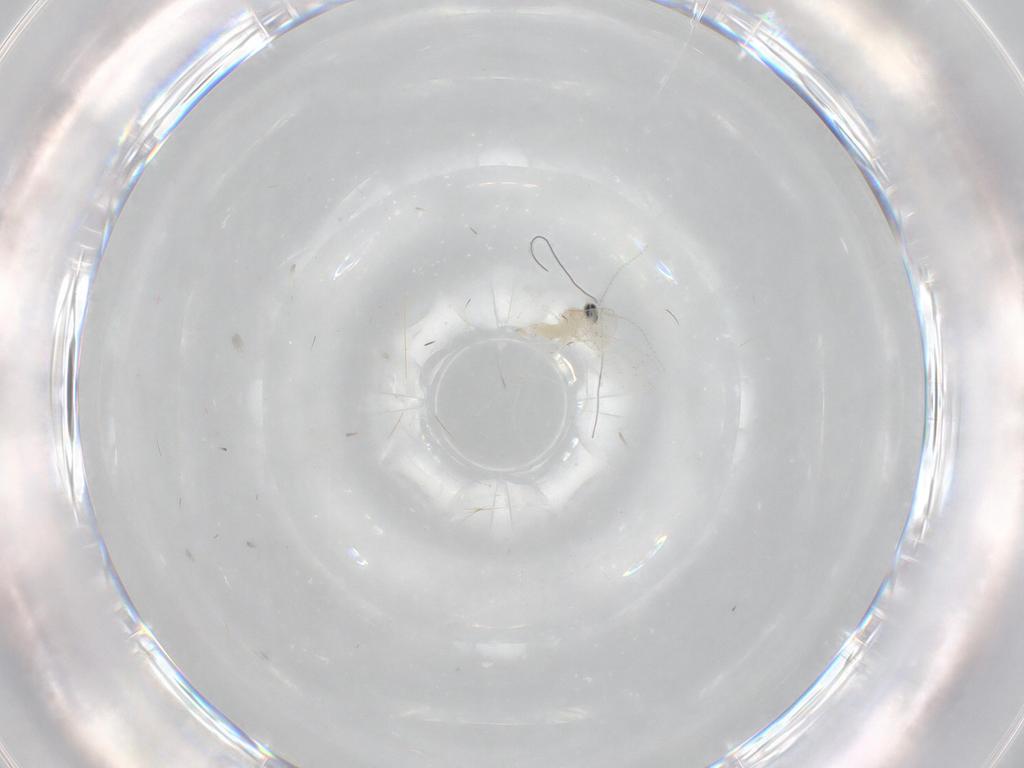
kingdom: Animalia
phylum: Arthropoda
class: Insecta
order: Diptera
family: Cecidomyiidae
